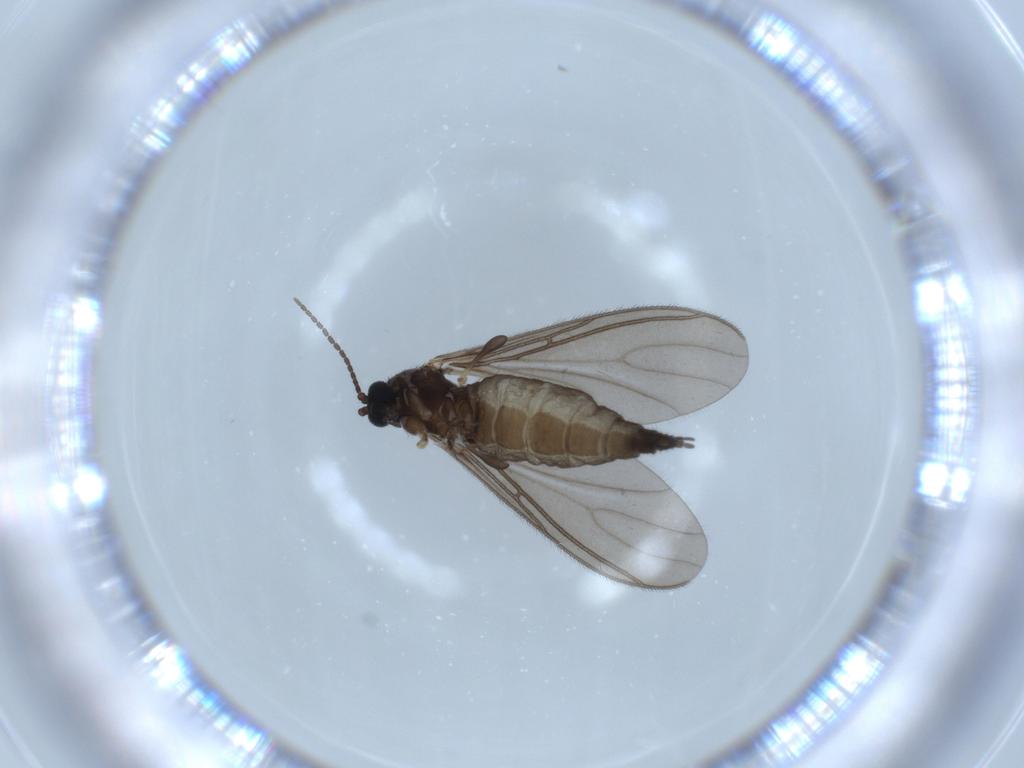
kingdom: Animalia
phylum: Arthropoda
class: Insecta
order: Diptera
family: Sciaridae
